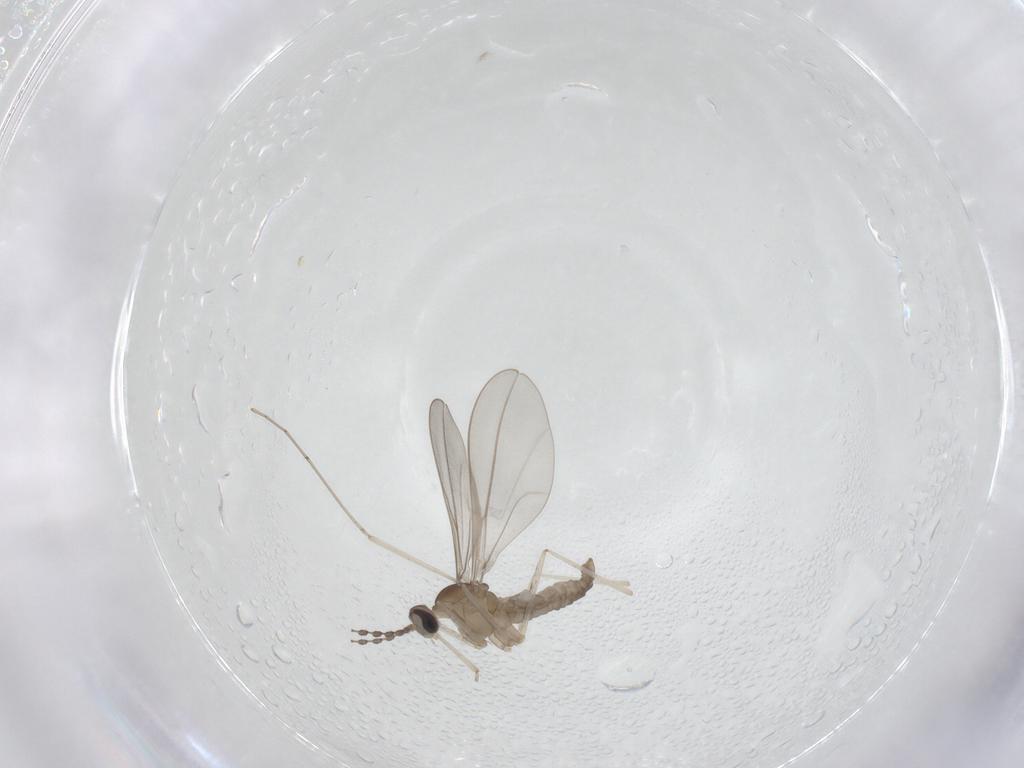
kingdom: Animalia
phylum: Arthropoda
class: Insecta
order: Diptera
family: Cecidomyiidae
